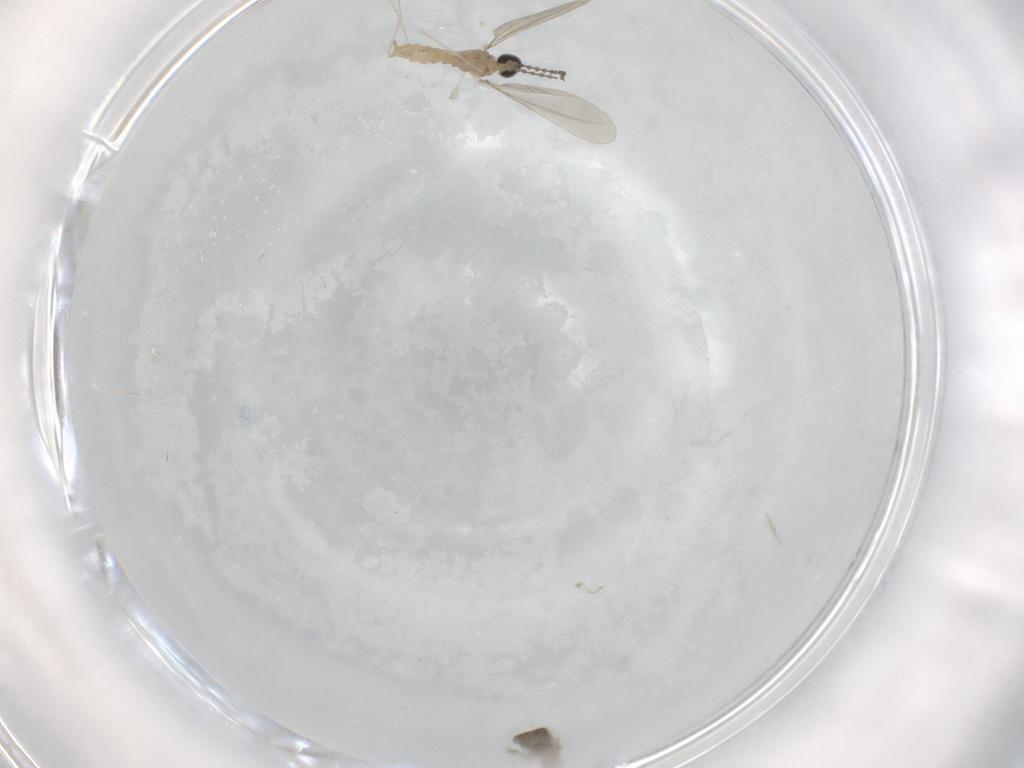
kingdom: Animalia
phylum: Arthropoda
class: Insecta
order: Diptera
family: Cecidomyiidae
